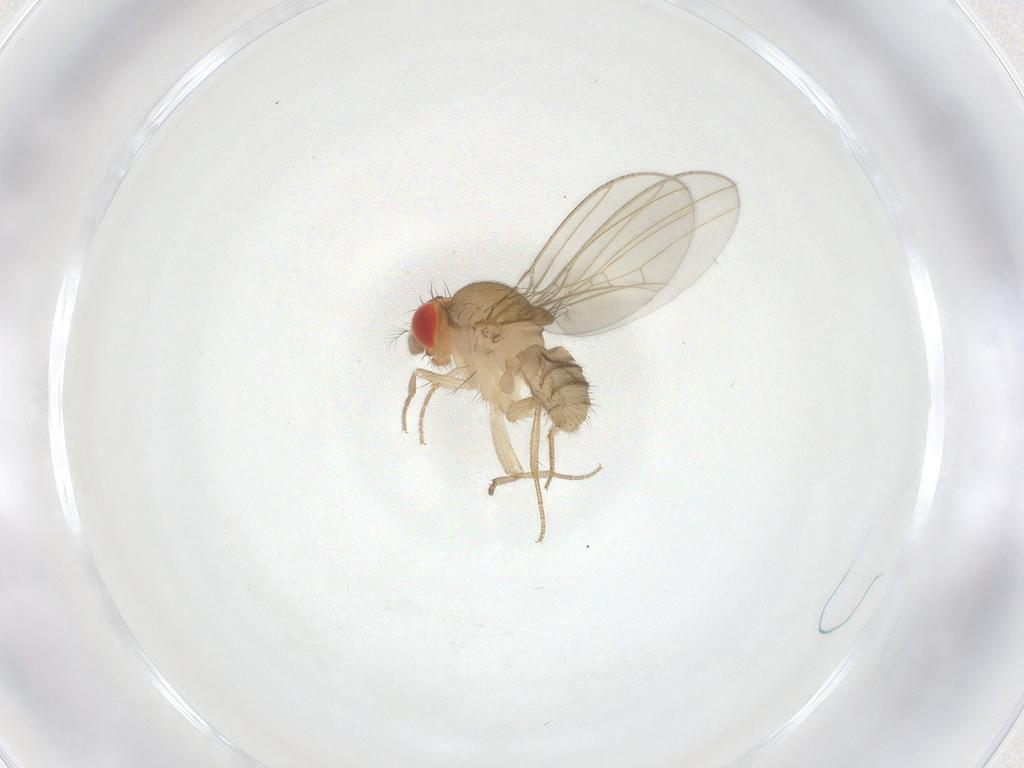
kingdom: Animalia
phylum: Arthropoda
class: Insecta
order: Diptera
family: Drosophilidae
